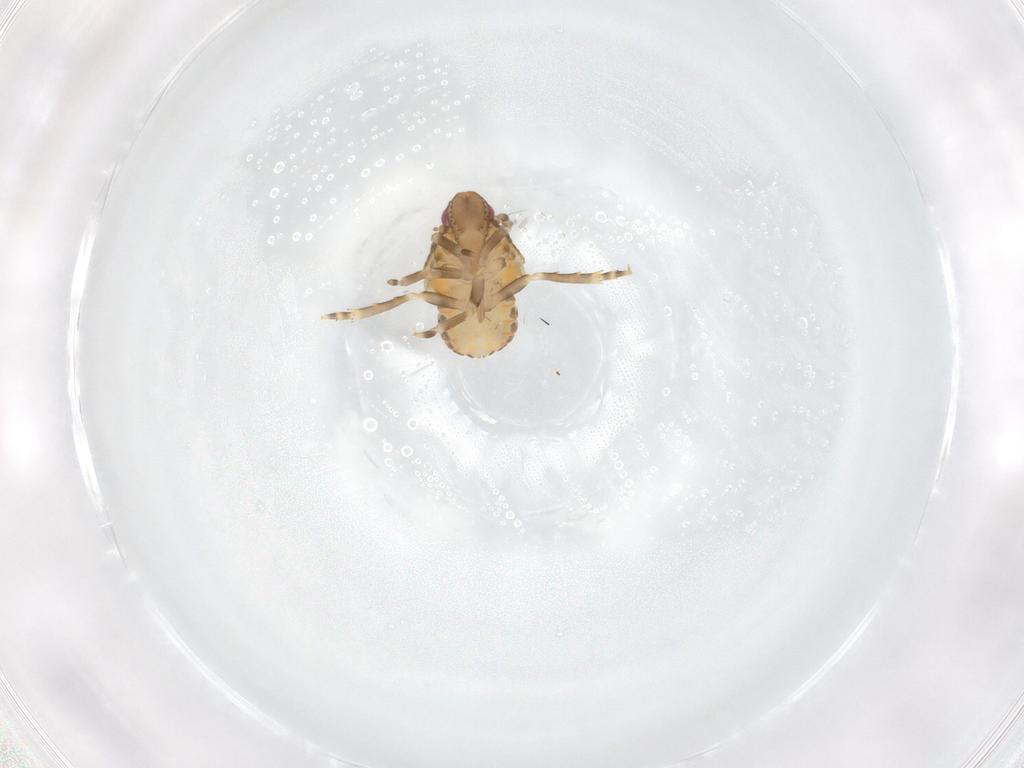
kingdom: Animalia
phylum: Arthropoda
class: Insecta
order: Hemiptera
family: Flatidae
